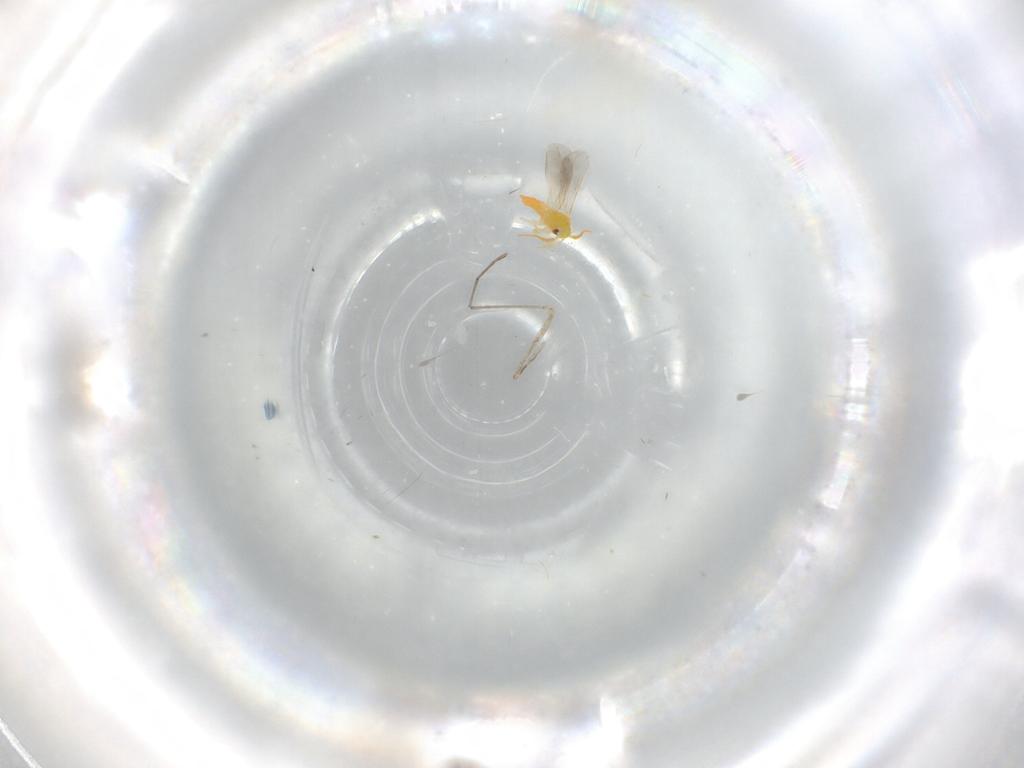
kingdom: Animalia
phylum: Arthropoda
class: Insecta
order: Hemiptera
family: Aleyrodidae
